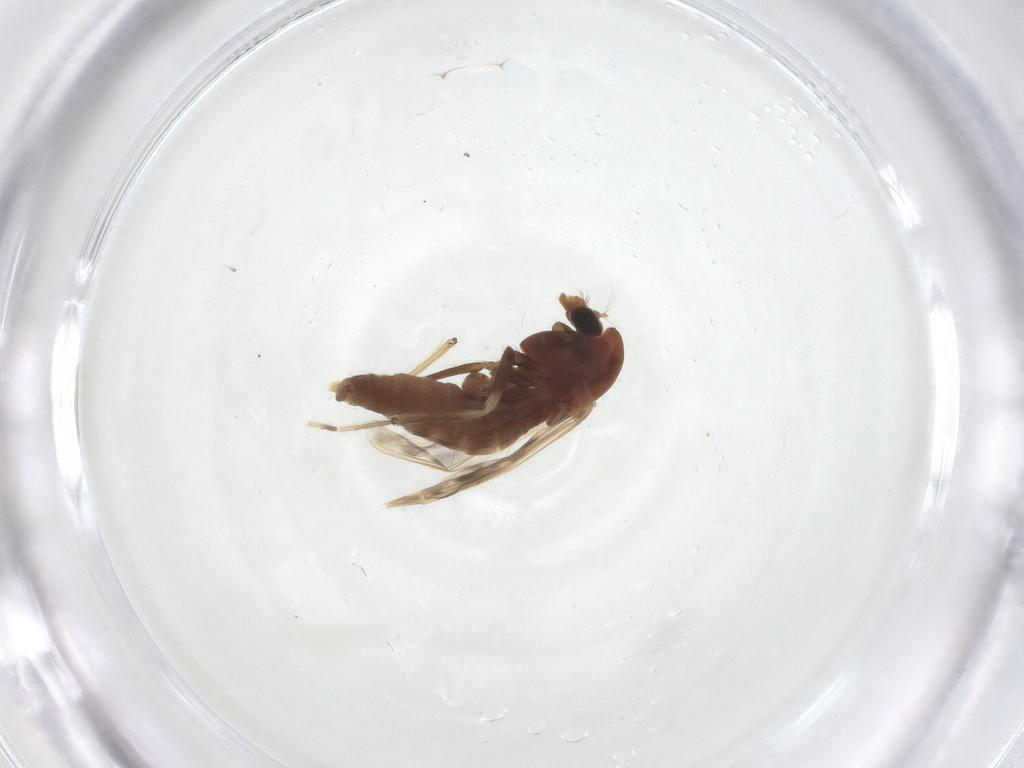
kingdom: Animalia
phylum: Arthropoda
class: Insecta
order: Diptera
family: Chironomidae
